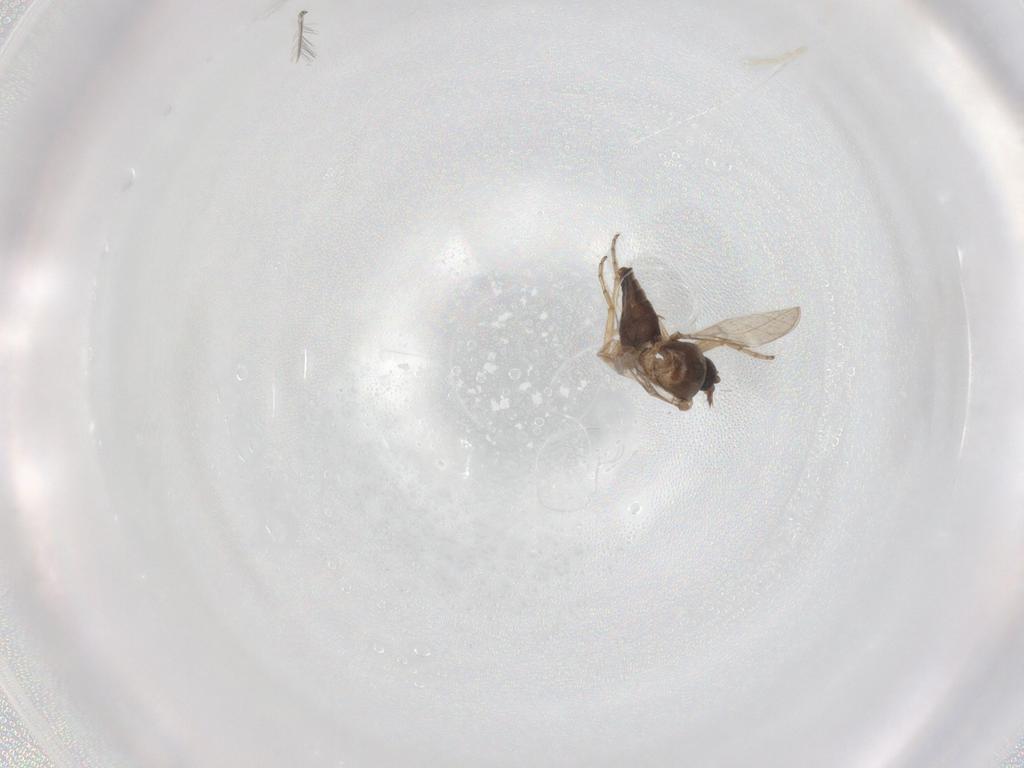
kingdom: Animalia
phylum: Arthropoda
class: Insecta
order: Diptera
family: Ceratopogonidae
